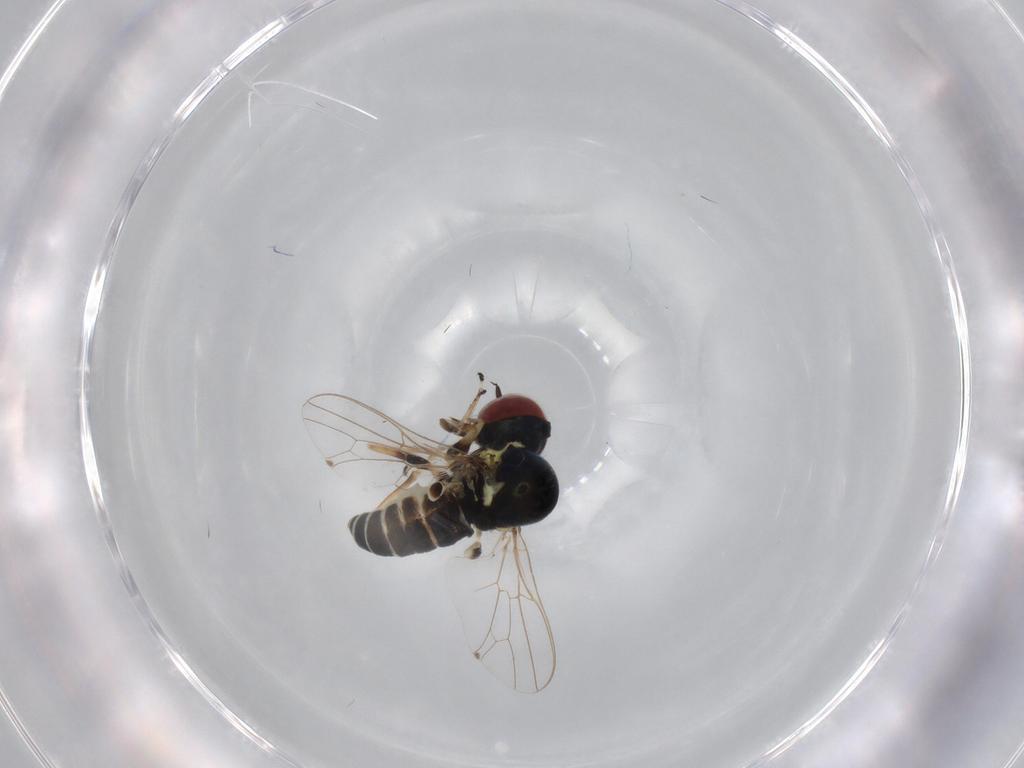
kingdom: Animalia
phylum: Arthropoda
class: Insecta
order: Diptera
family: Bombyliidae
